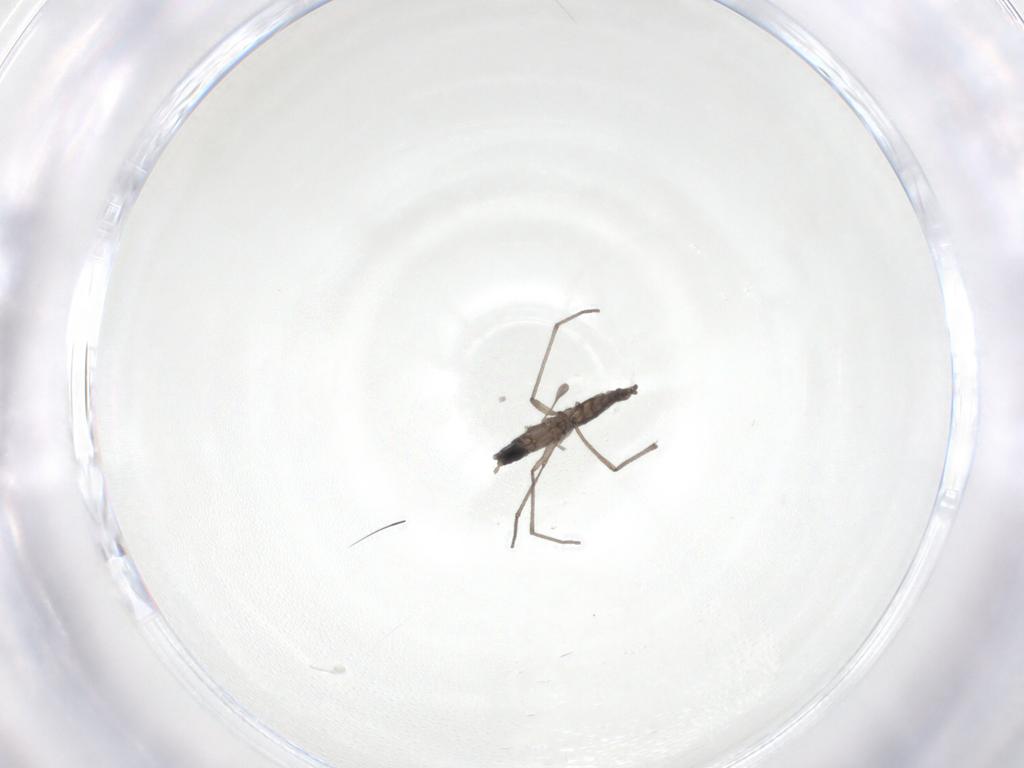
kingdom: Animalia
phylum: Arthropoda
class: Insecta
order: Diptera
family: Sciaridae
